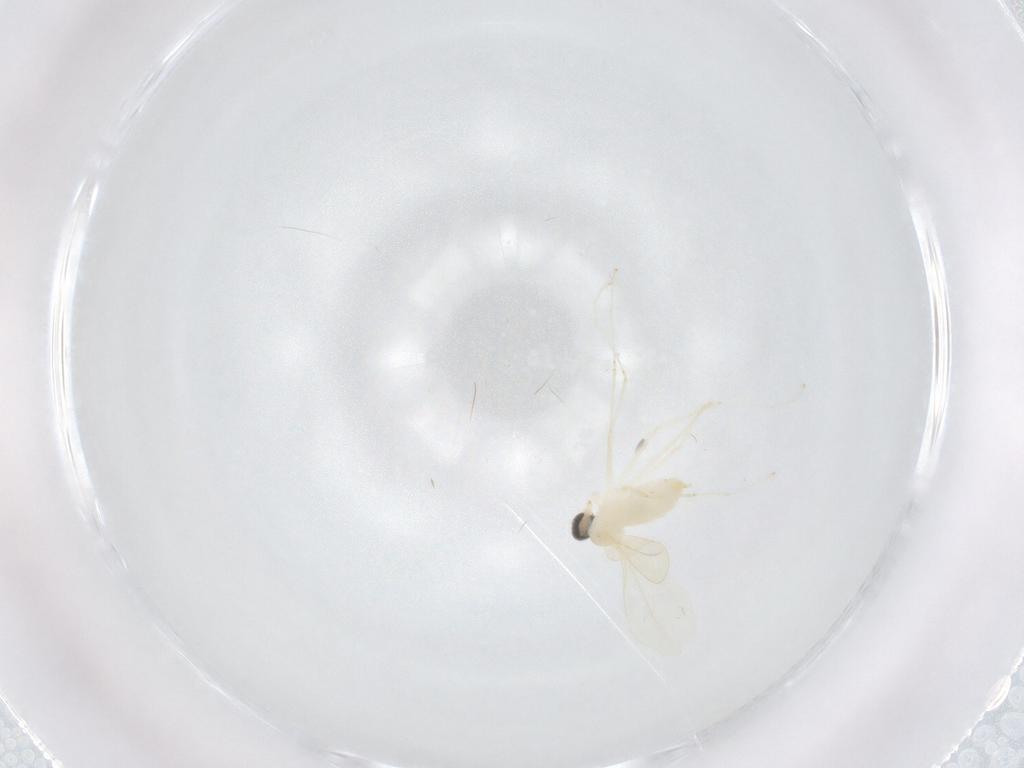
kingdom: Animalia
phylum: Arthropoda
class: Insecta
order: Diptera
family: Cecidomyiidae
